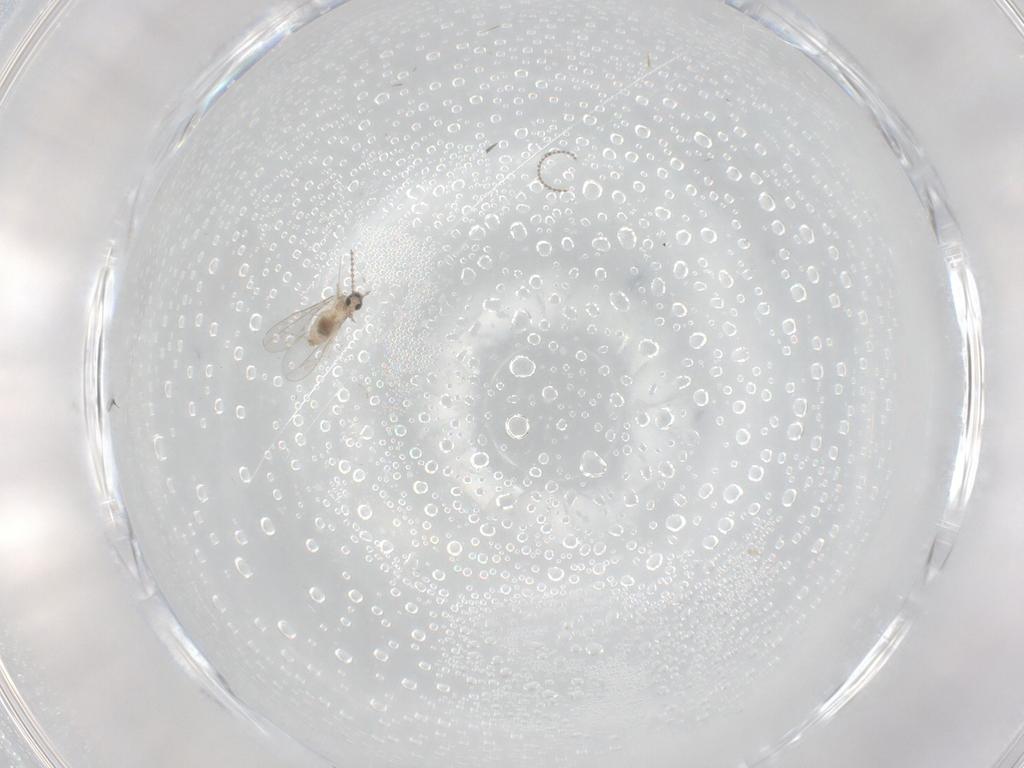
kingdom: Animalia
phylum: Arthropoda
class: Insecta
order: Diptera
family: Cecidomyiidae
